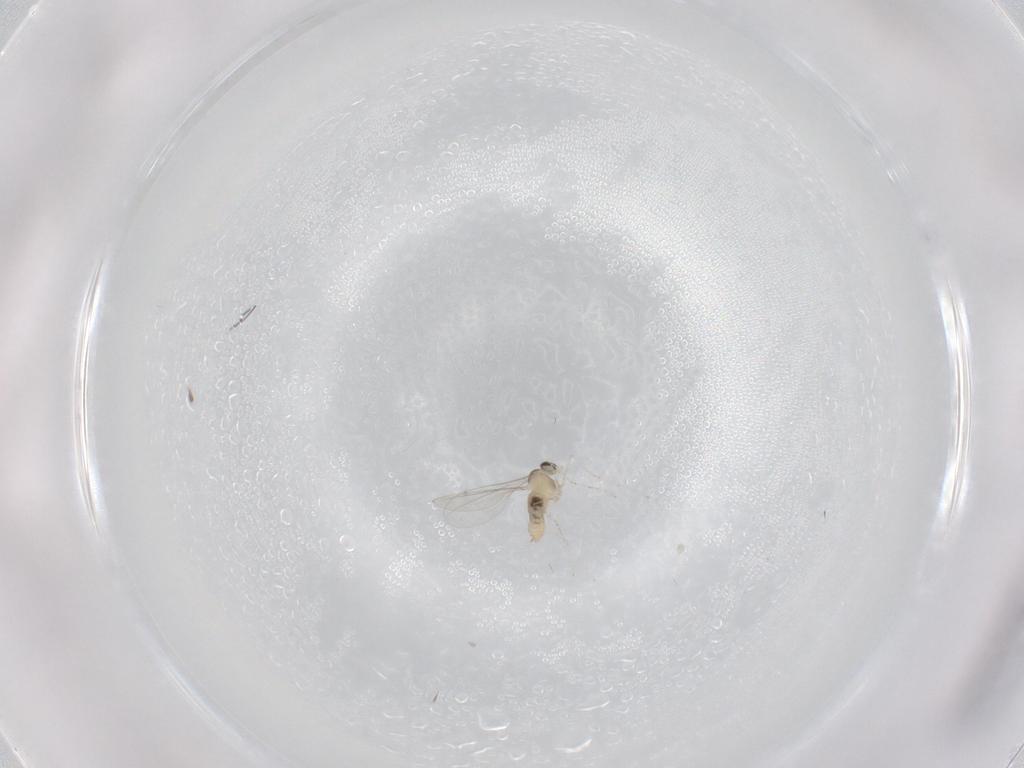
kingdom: Animalia
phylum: Arthropoda
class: Insecta
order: Diptera
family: Cecidomyiidae
